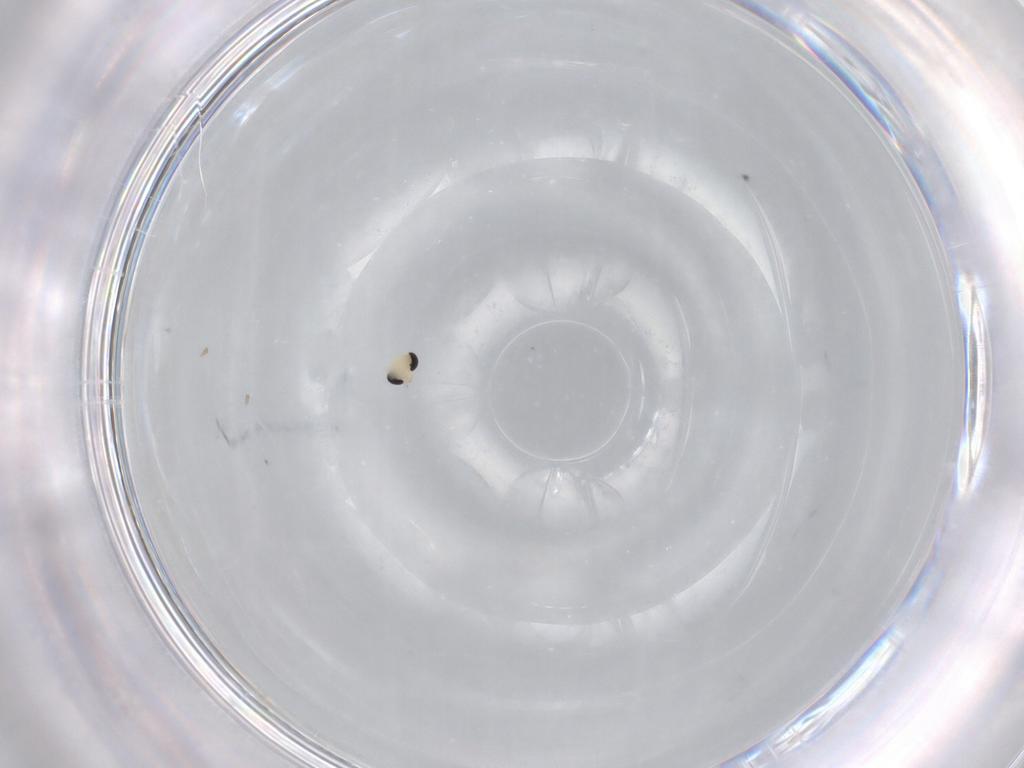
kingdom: Animalia
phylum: Arthropoda
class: Insecta
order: Diptera
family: Chironomidae
